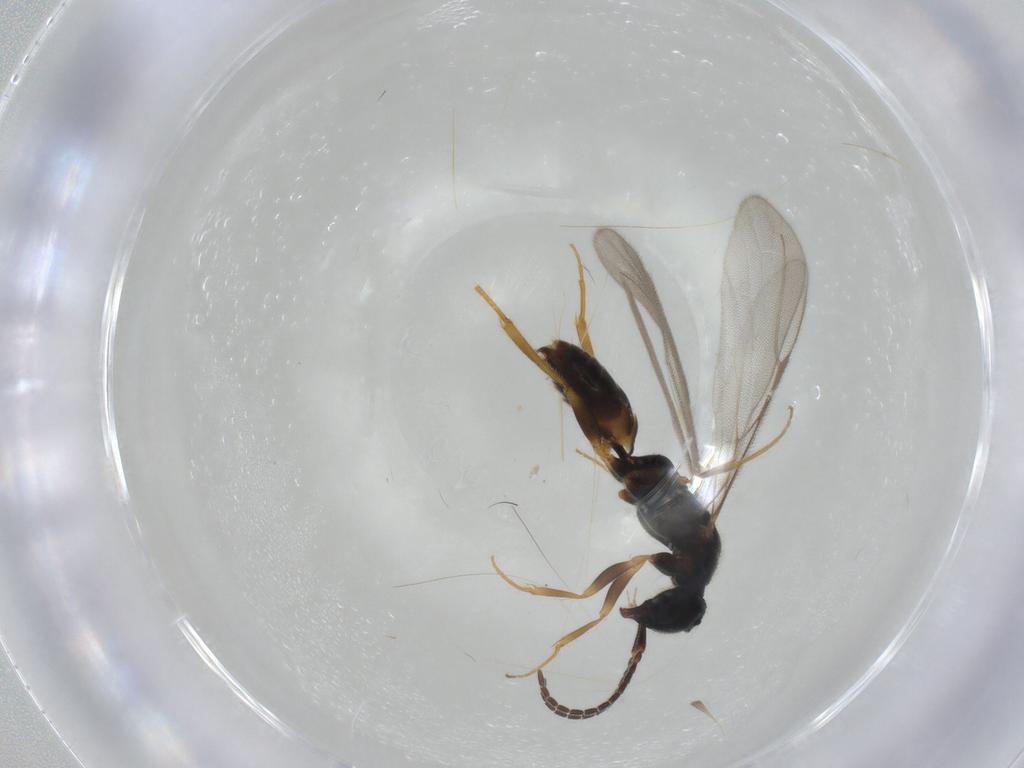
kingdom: Animalia
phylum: Arthropoda
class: Insecta
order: Hymenoptera
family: Bethylidae
